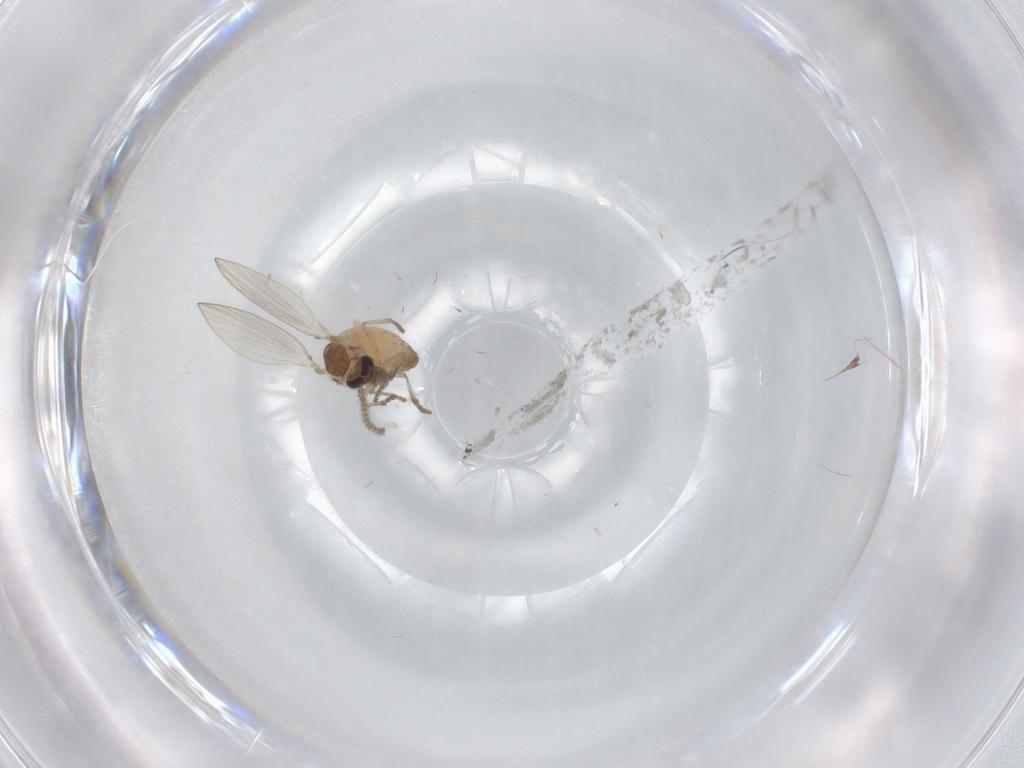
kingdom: Animalia
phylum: Arthropoda
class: Insecta
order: Diptera
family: Psychodidae
